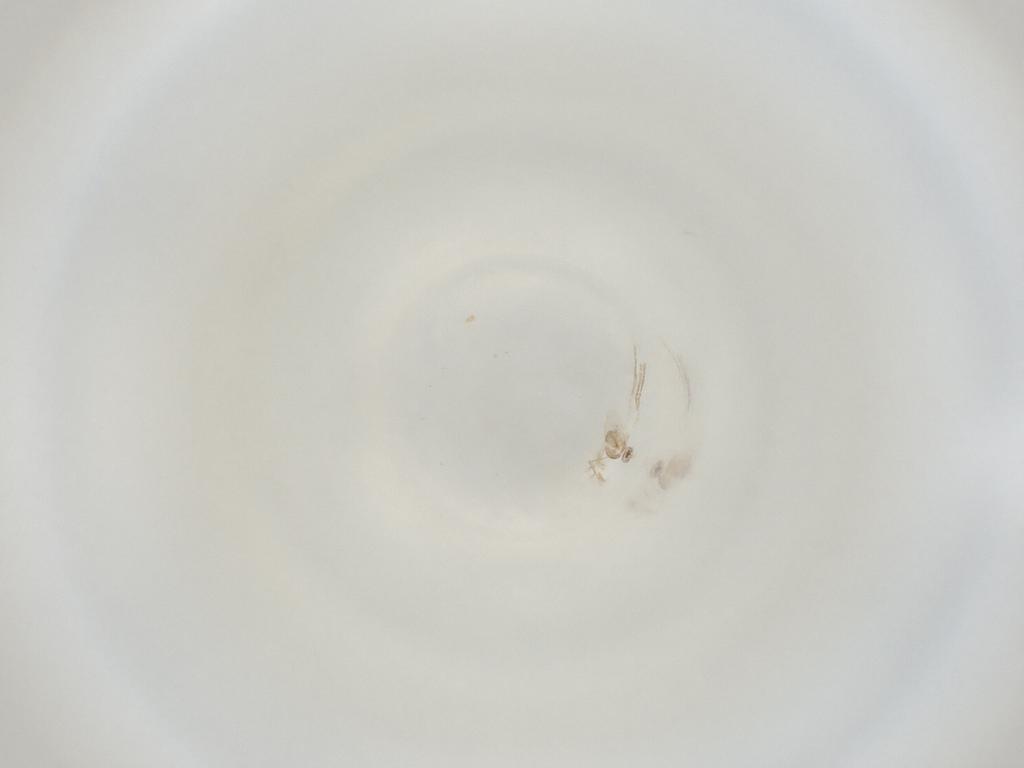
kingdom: Animalia
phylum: Arthropoda
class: Insecta
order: Diptera
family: Cecidomyiidae
